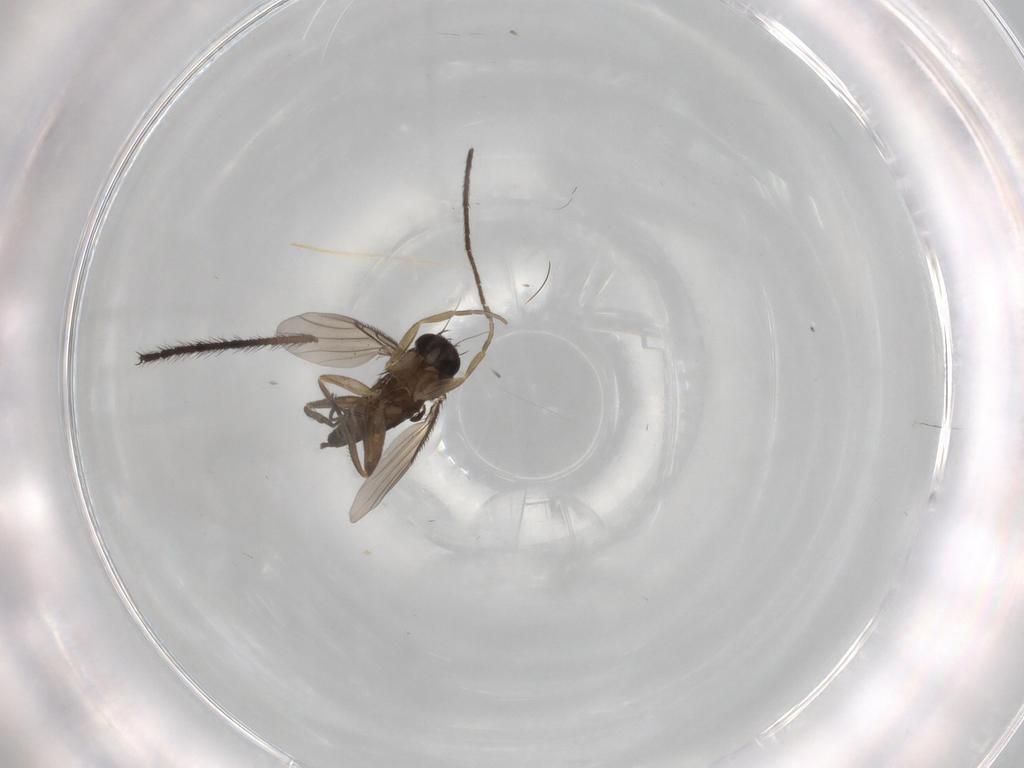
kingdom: Animalia
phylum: Arthropoda
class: Insecta
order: Diptera
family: Phoridae
